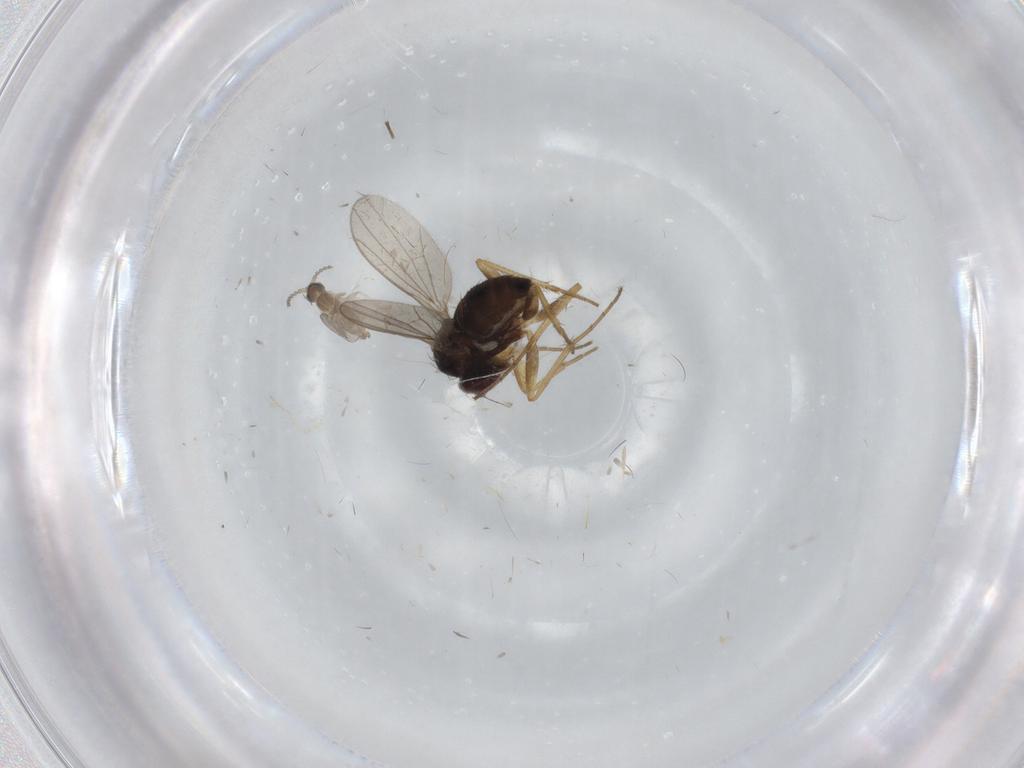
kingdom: Animalia
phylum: Arthropoda
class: Insecta
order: Diptera
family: Cecidomyiidae
